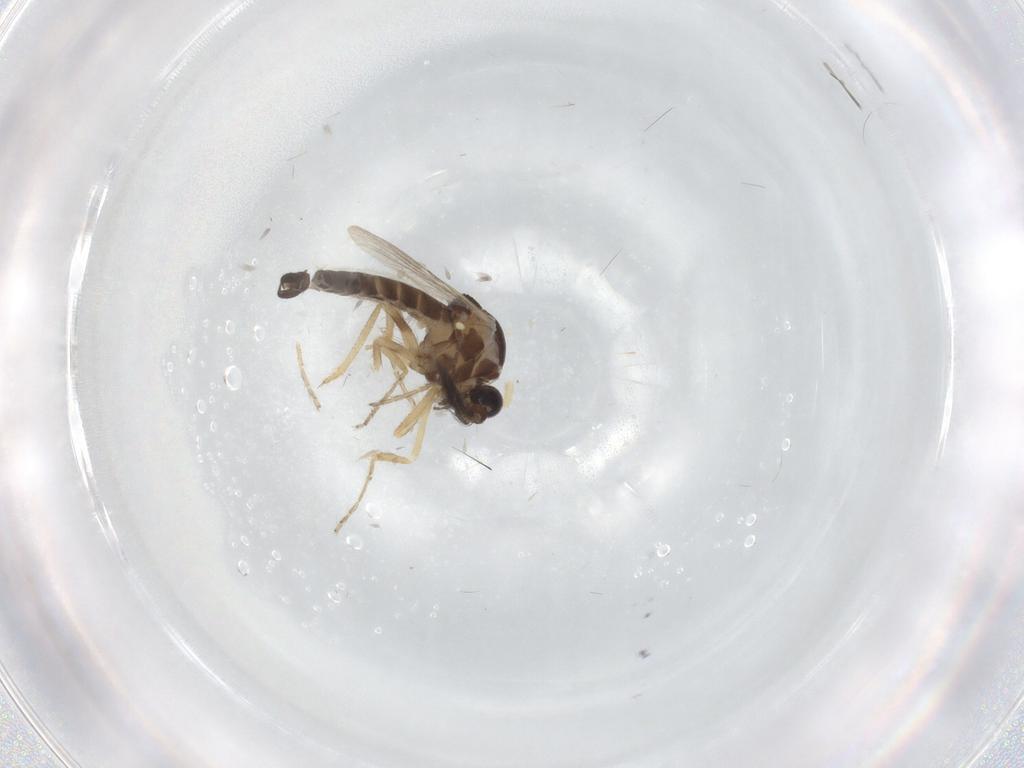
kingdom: Animalia
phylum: Arthropoda
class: Insecta
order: Diptera
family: Ceratopogonidae
